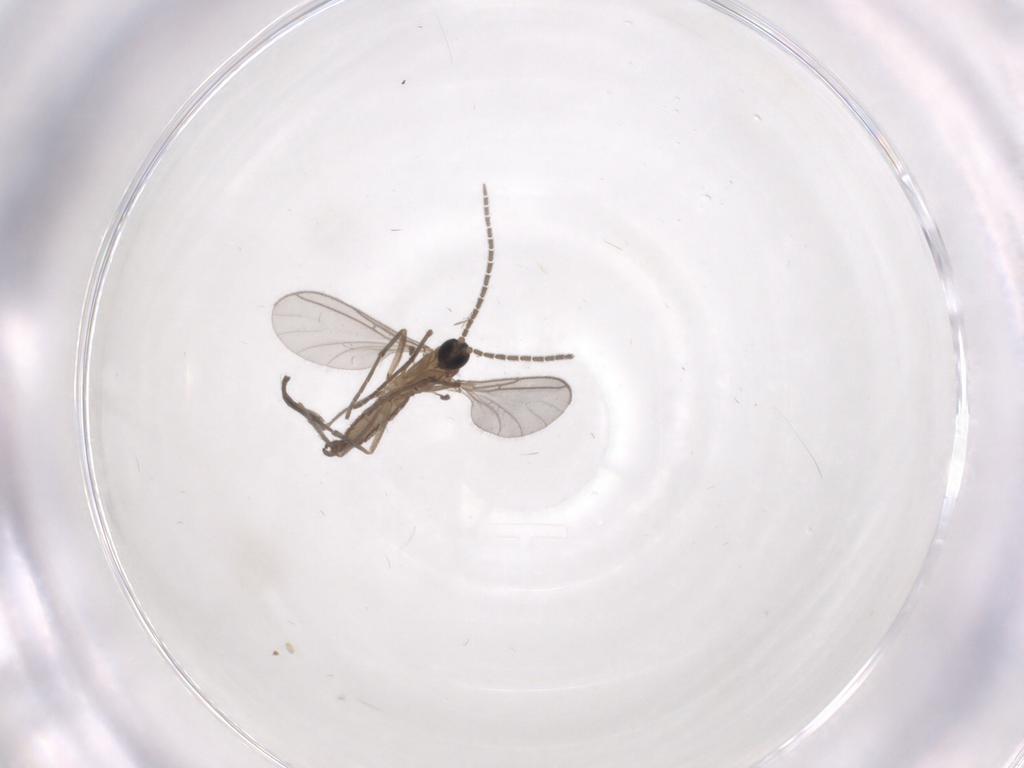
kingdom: Animalia
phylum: Arthropoda
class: Insecta
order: Diptera
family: Sciaridae
